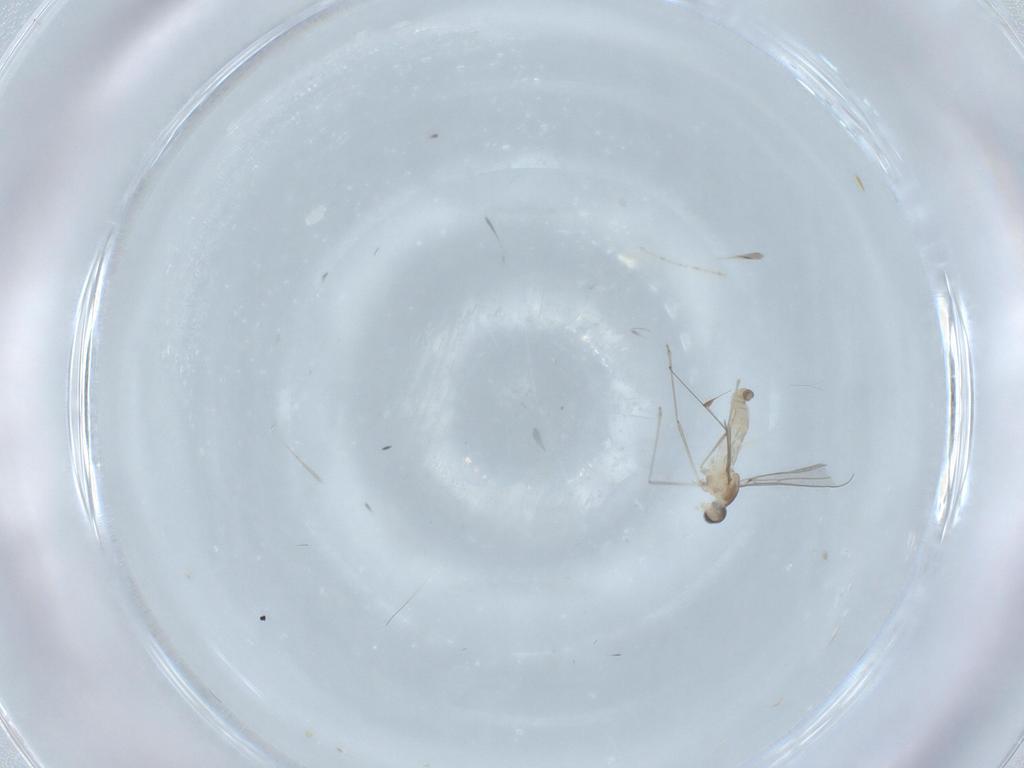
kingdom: Animalia
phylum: Arthropoda
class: Insecta
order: Diptera
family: Cecidomyiidae
